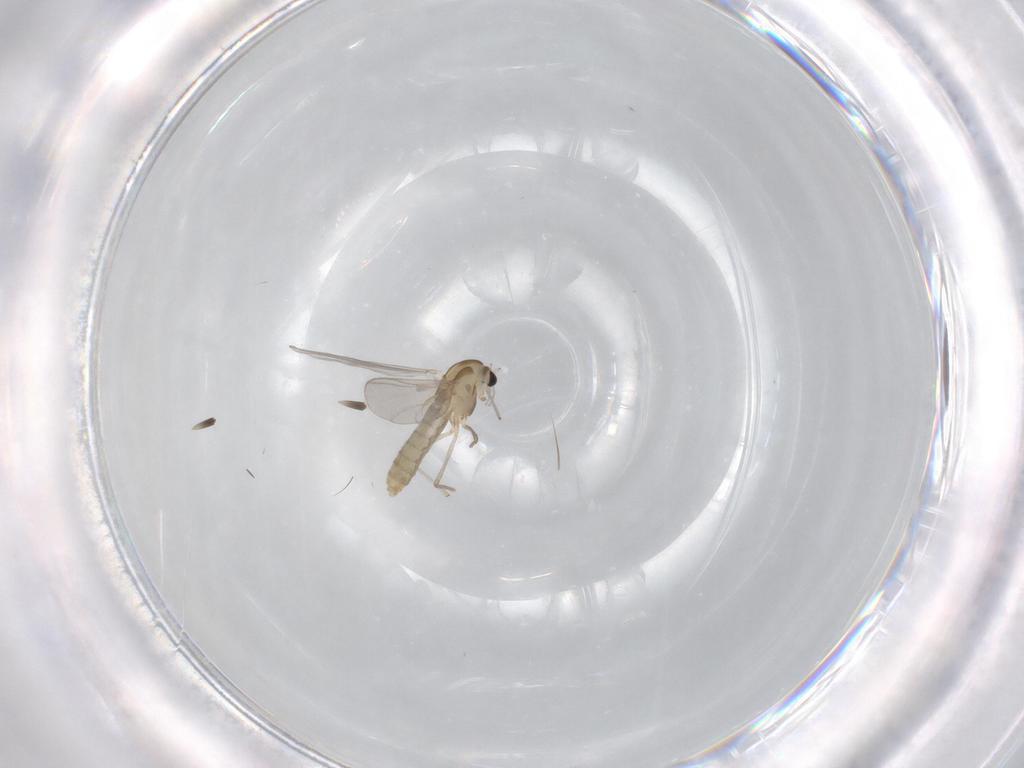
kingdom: Animalia
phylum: Arthropoda
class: Insecta
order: Diptera
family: Chironomidae
